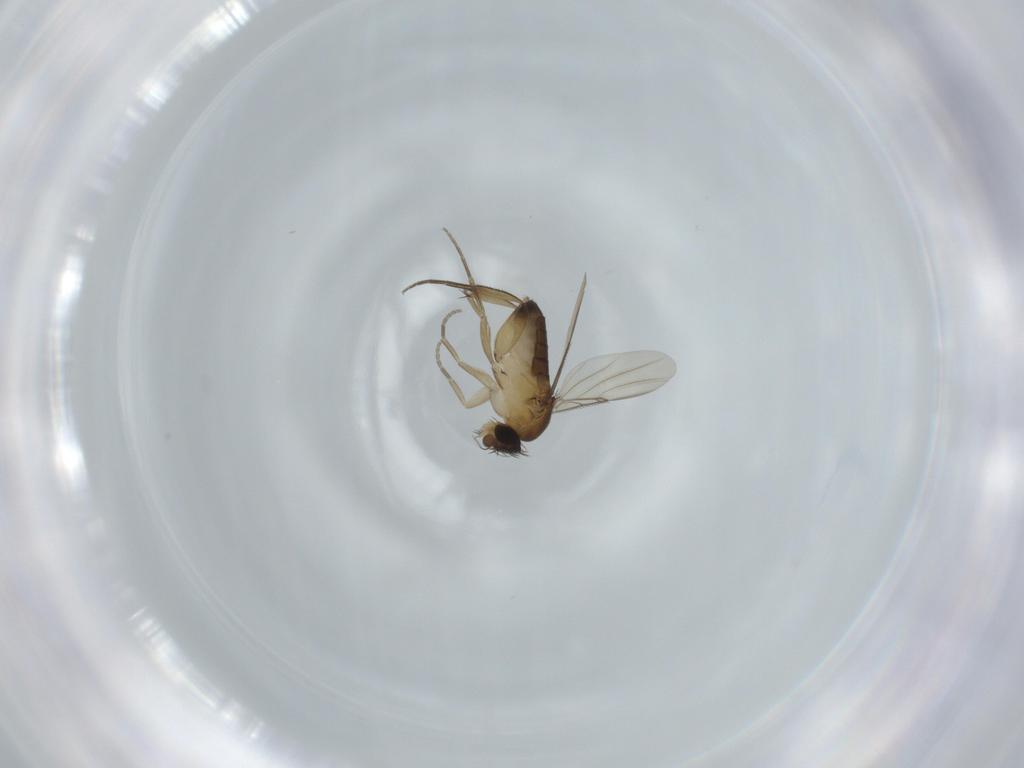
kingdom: Animalia
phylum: Arthropoda
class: Insecta
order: Diptera
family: Phoridae
